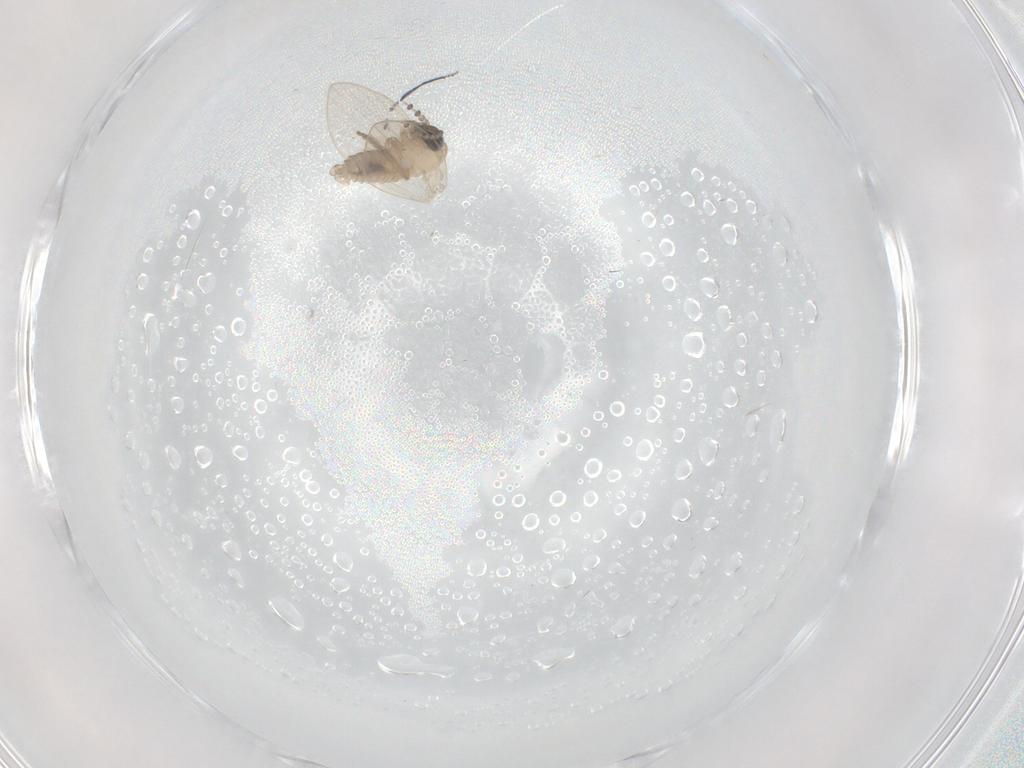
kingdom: Animalia
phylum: Arthropoda
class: Insecta
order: Diptera
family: Psychodidae
